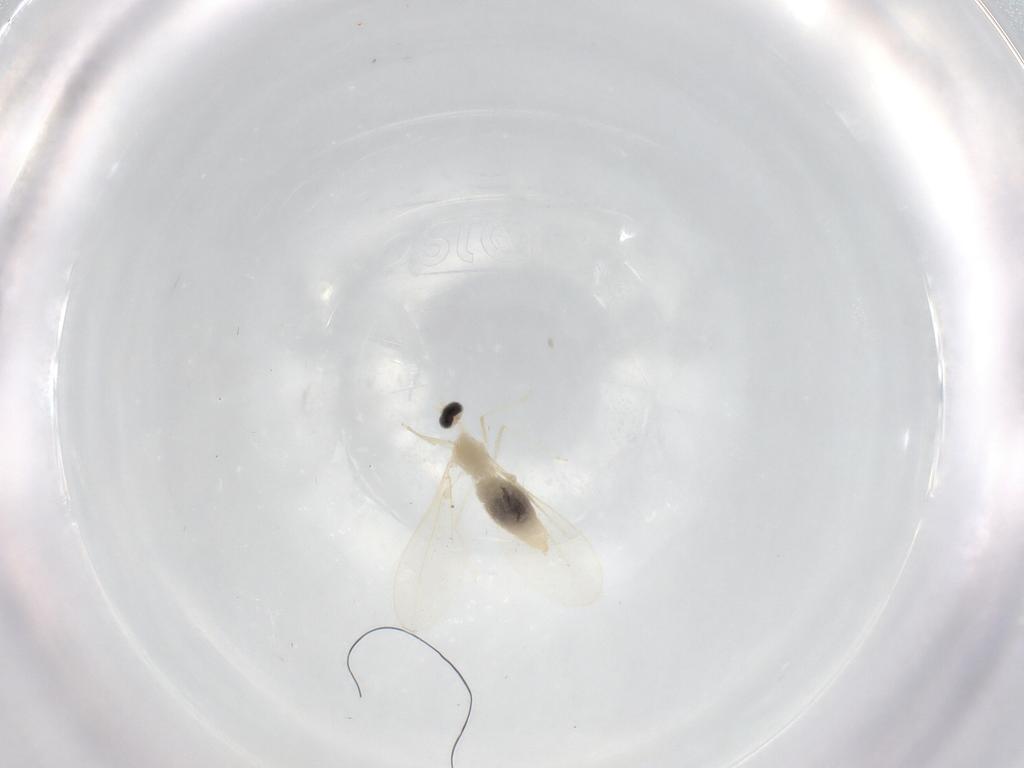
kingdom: Animalia
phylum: Arthropoda
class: Insecta
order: Diptera
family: Cecidomyiidae
